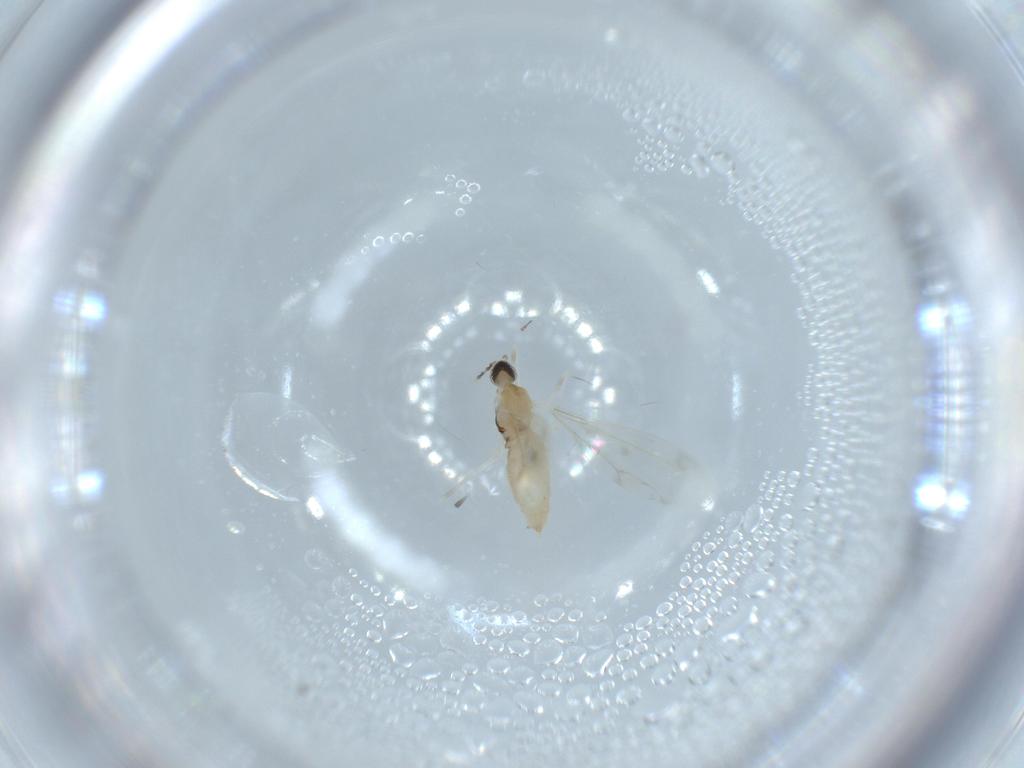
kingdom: Animalia
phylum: Arthropoda
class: Insecta
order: Diptera
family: Cecidomyiidae
